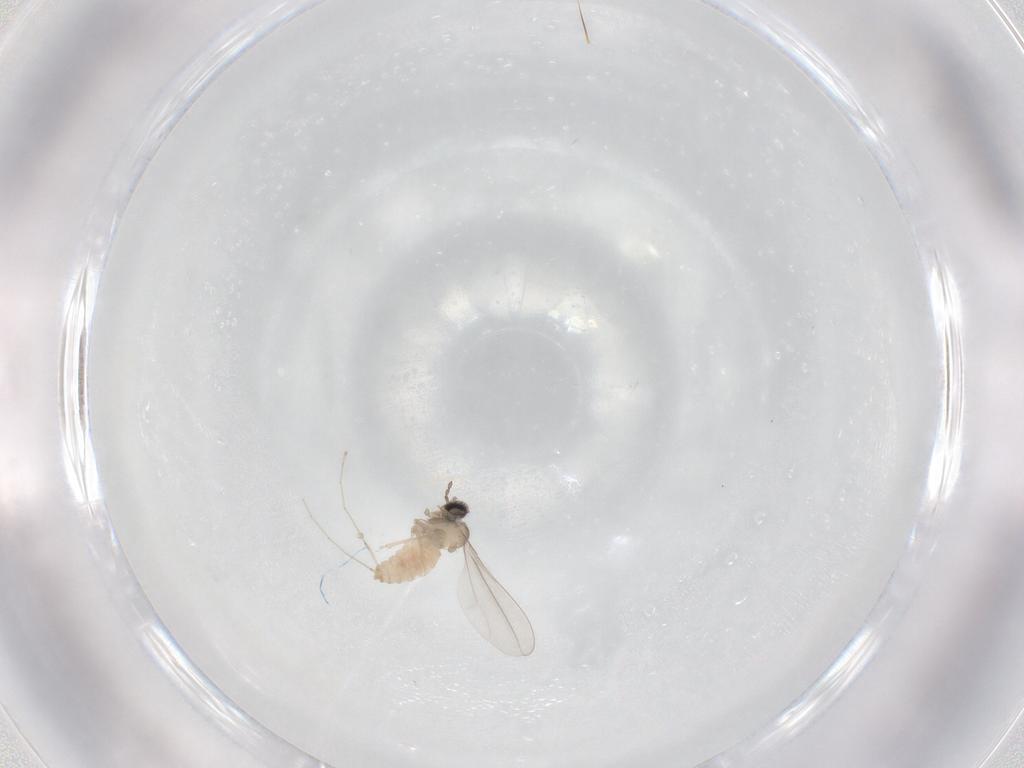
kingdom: Animalia
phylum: Arthropoda
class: Insecta
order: Diptera
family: Cecidomyiidae
